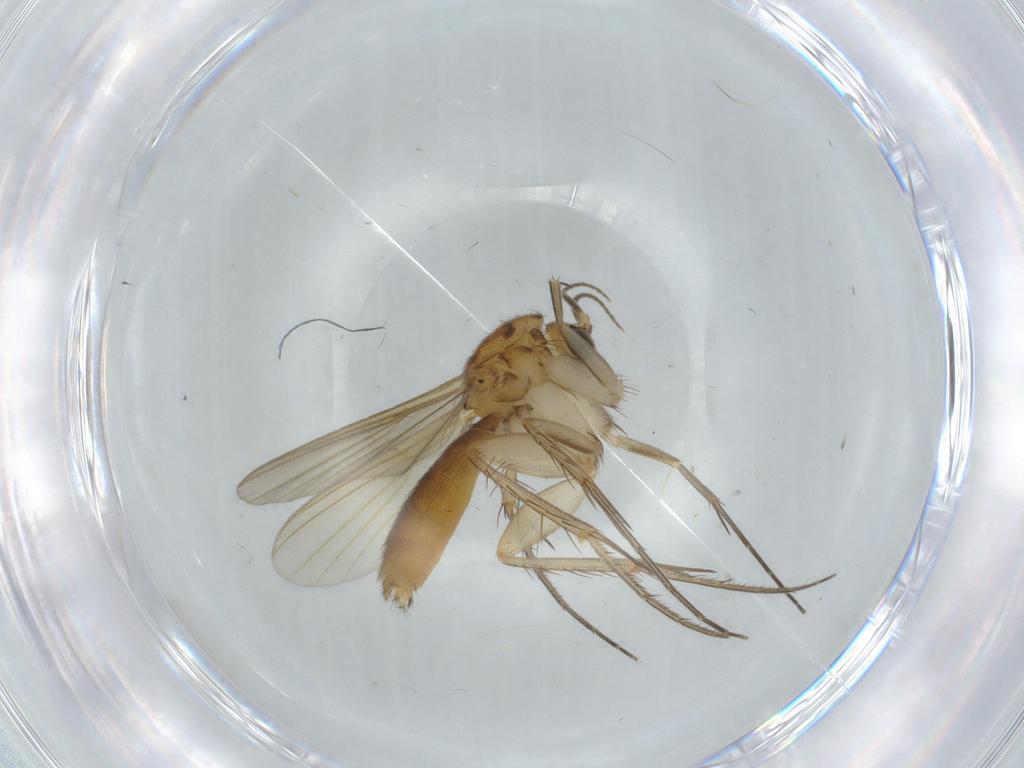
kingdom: Animalia
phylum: Arthropoda
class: Insecta
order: Diptera
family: Mycetophilidae
